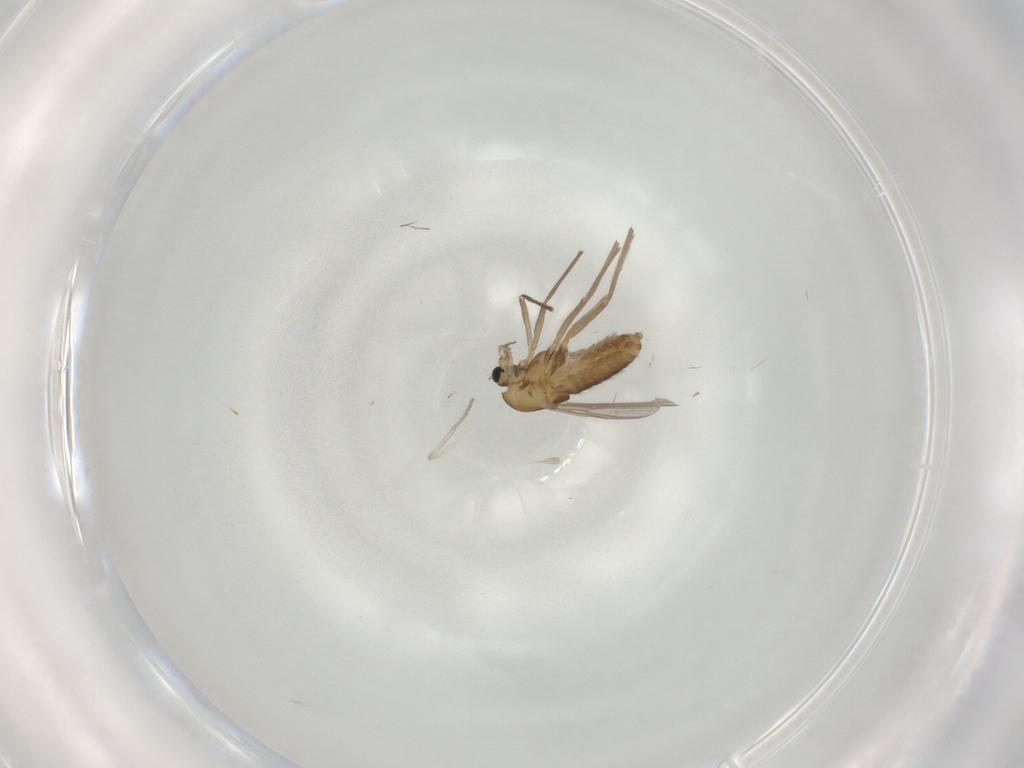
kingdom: Animalia
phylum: Arthropoda
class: Insecta
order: Diptera
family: Chironomidae
